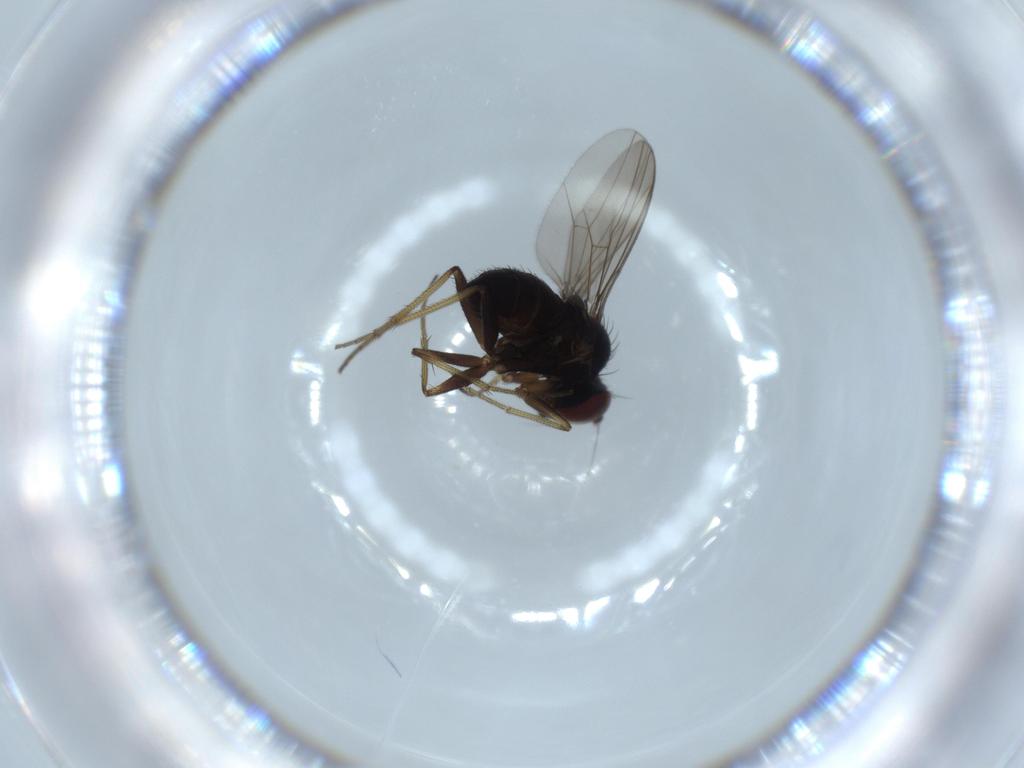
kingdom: Animalia
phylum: Arthropoda
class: Insecta
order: Diptera
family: Dolichopodidae
